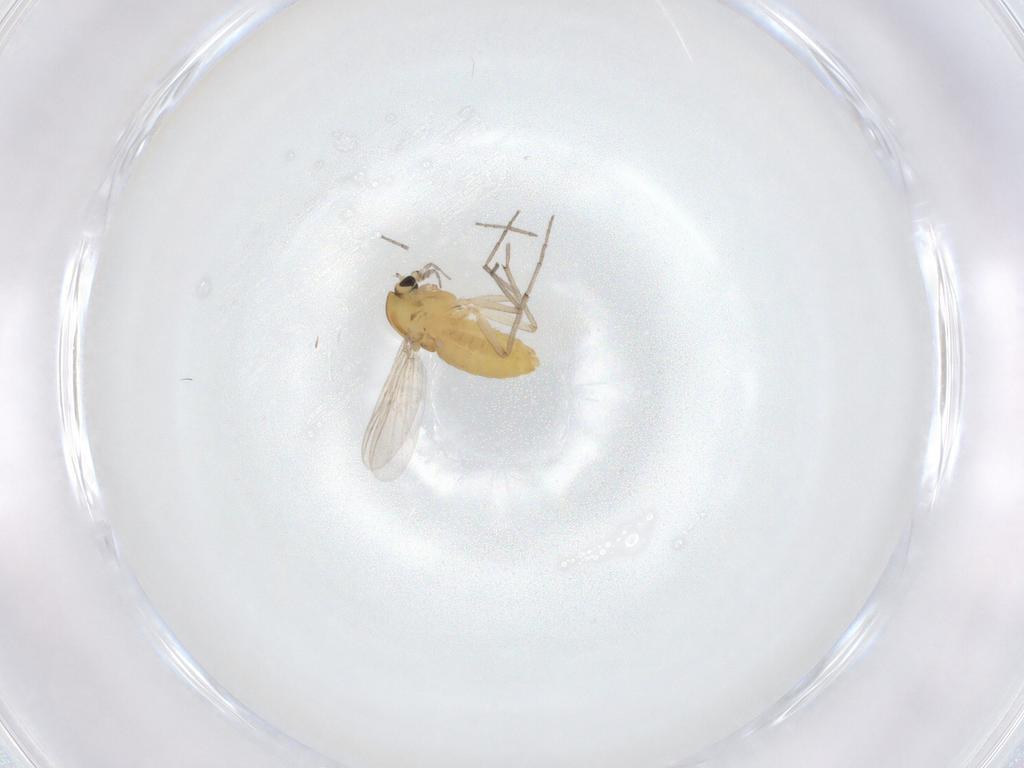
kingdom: Animalia
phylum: Arthropoda
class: Insecta
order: Diptera
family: Chironomidae
